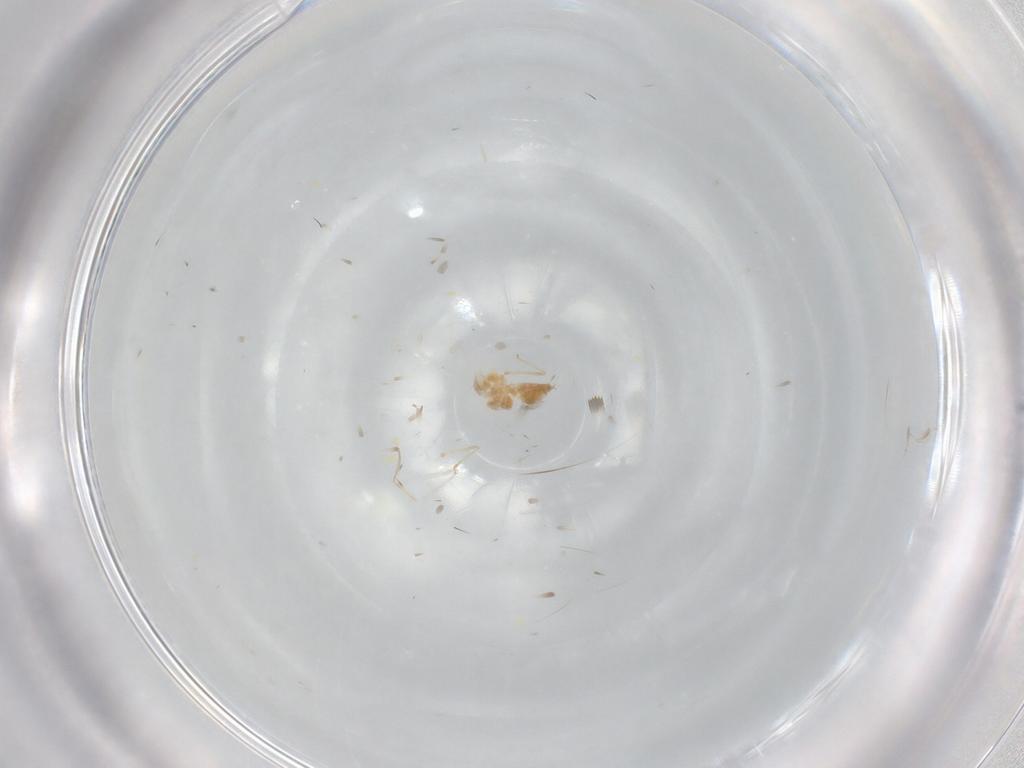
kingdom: Animalia
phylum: Arthropoda
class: Insecta
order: Diptera
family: Cecidomyiidae
